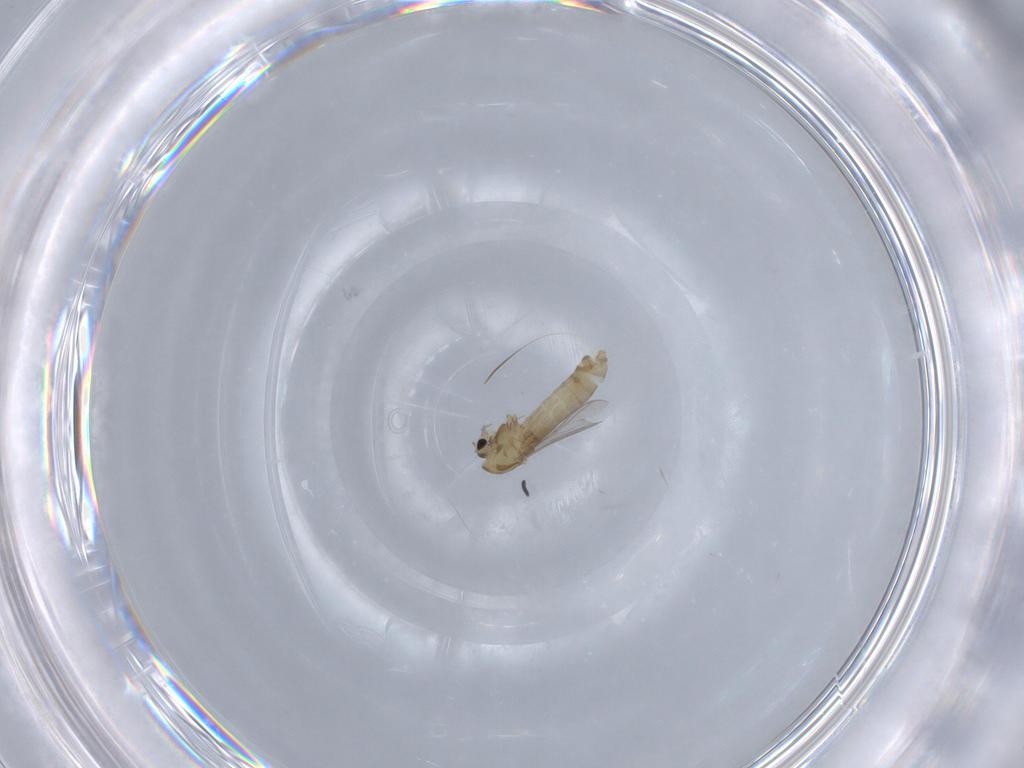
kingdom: Animalia
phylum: Arthropoda
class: Insecta
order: Diptera
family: Chironomidae
